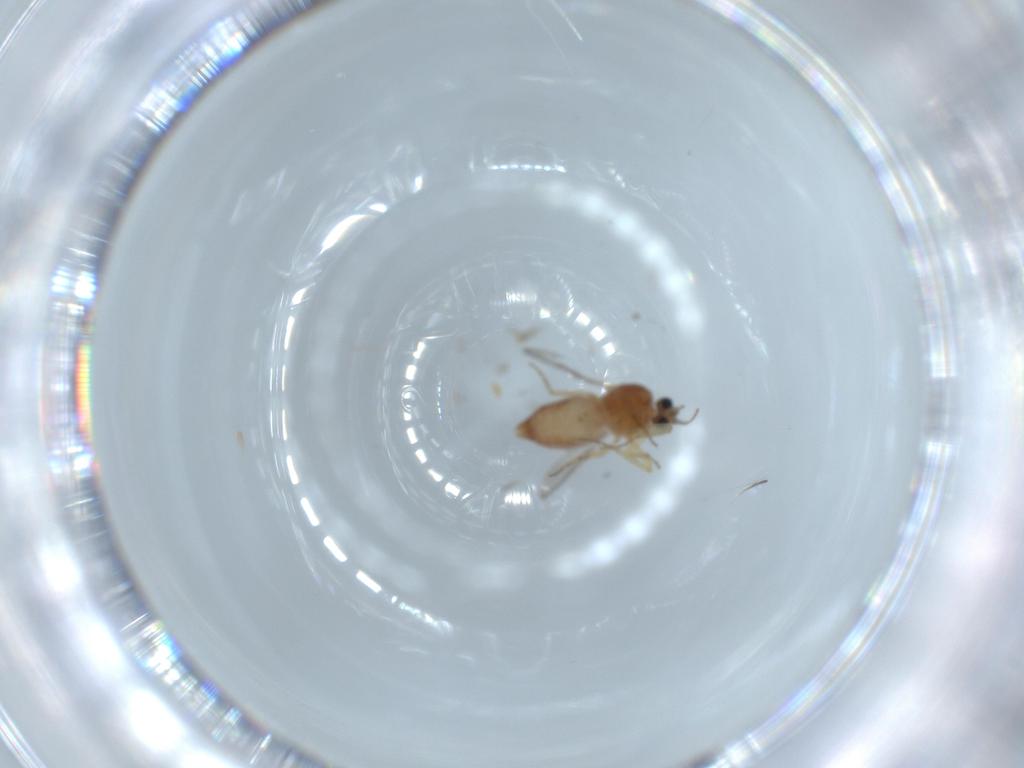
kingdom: Animalia
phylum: Arthropoda
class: Insecta
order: Diptera
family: Ceratopogonidae
